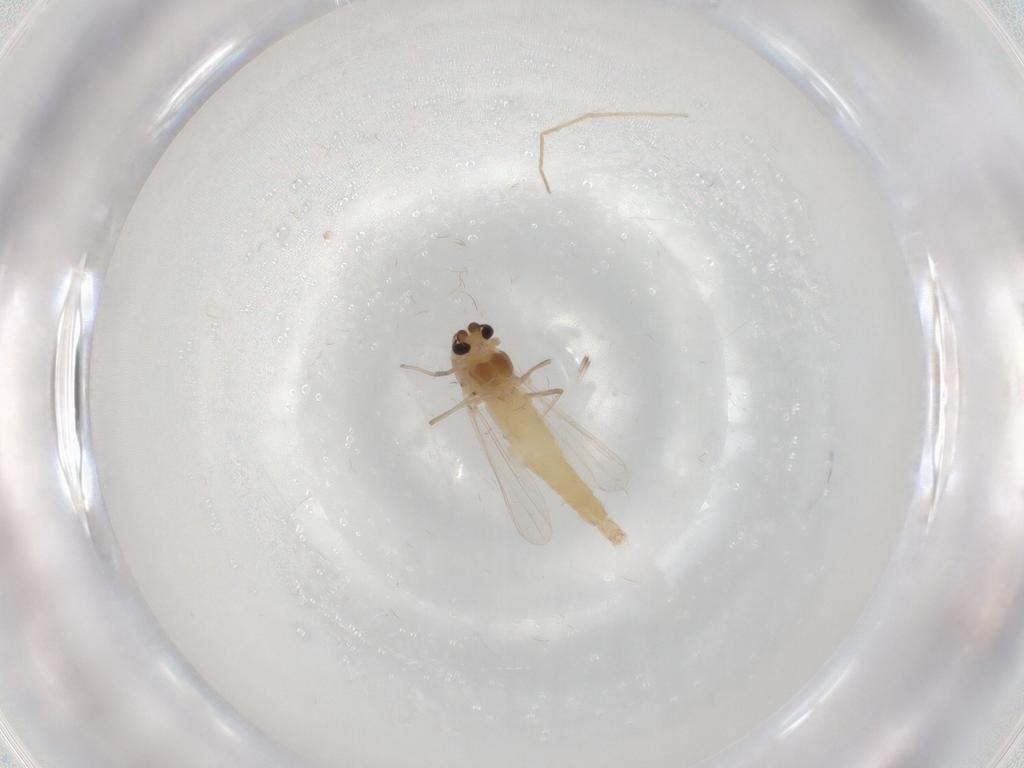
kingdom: Animalia
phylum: Arthropoda
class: Insecta
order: Diptera
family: Chironomidae
